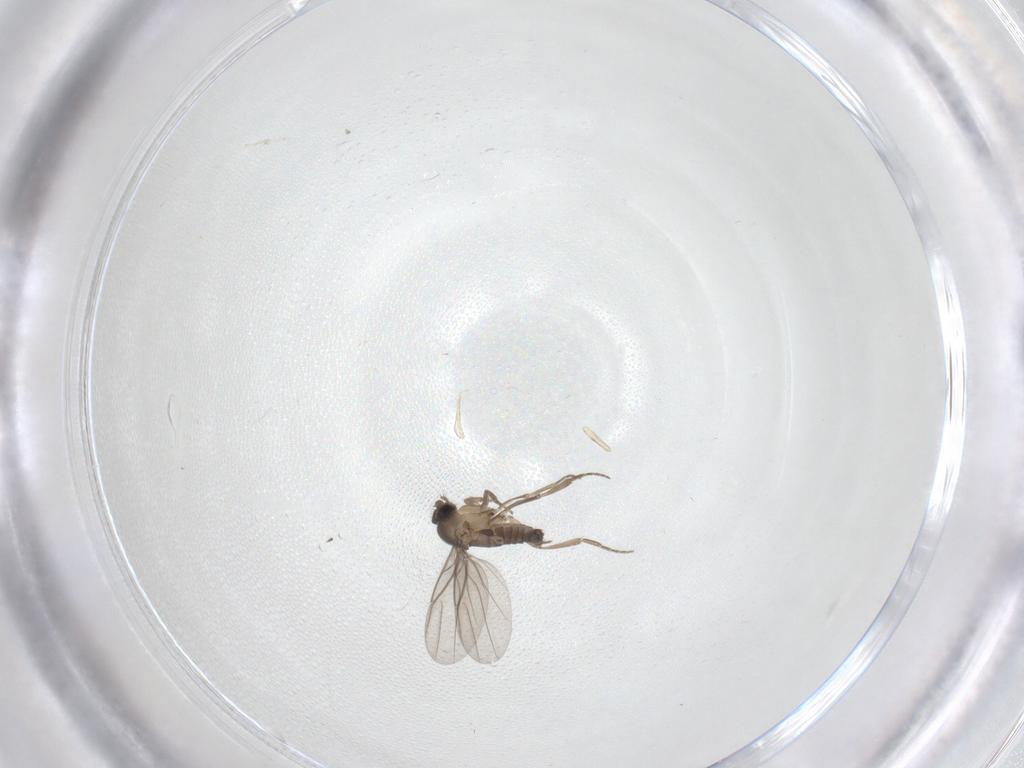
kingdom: Animalia
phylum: Arthropoda
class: Insecta
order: Diptera
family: Phoridae
